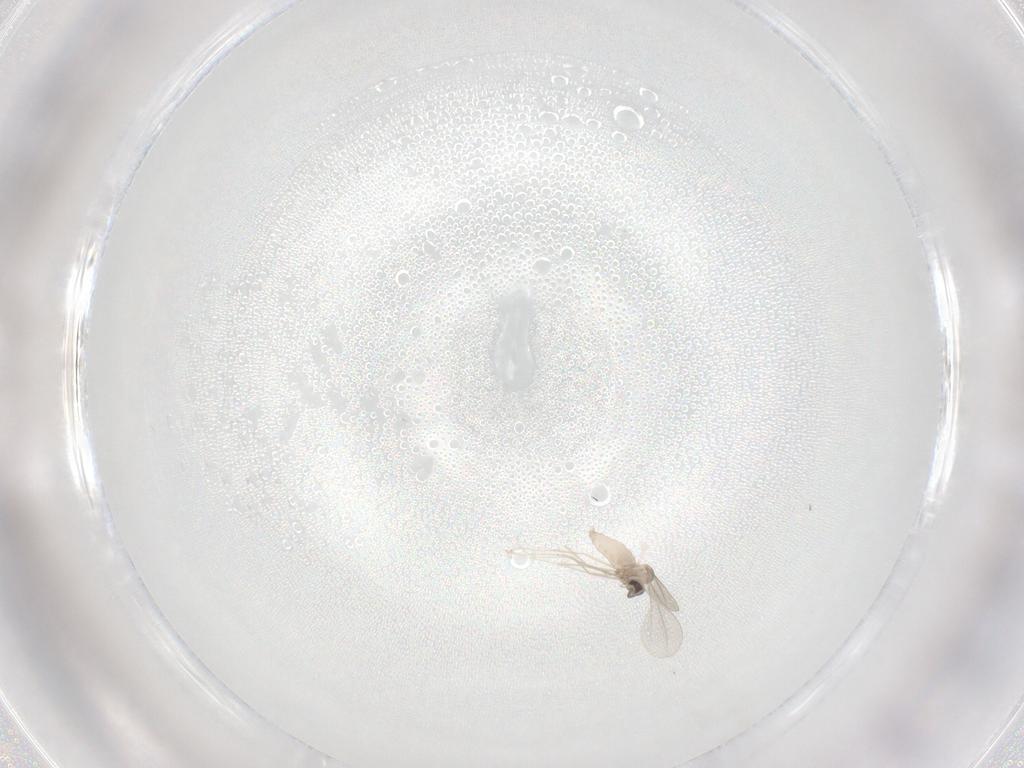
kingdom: Animalia
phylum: Arthropoda
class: Insecta
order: Diptera
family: Phoridae
